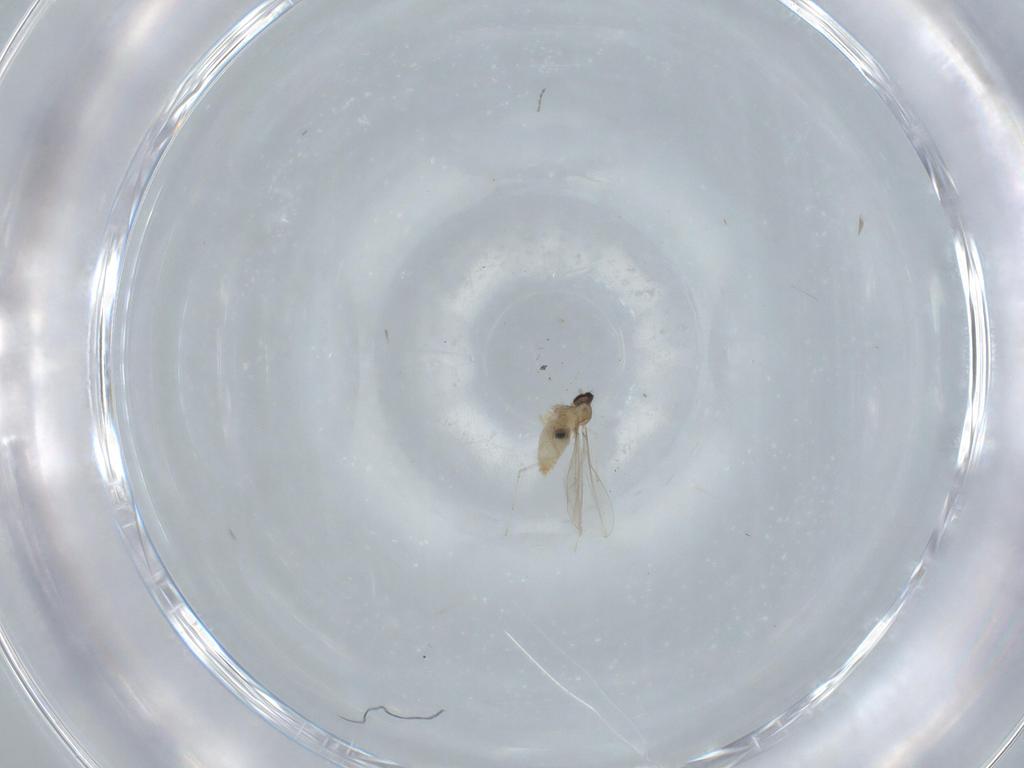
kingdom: Animalia
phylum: Arthropoda
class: Insecta
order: Diptera
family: Cecidomyiidae
